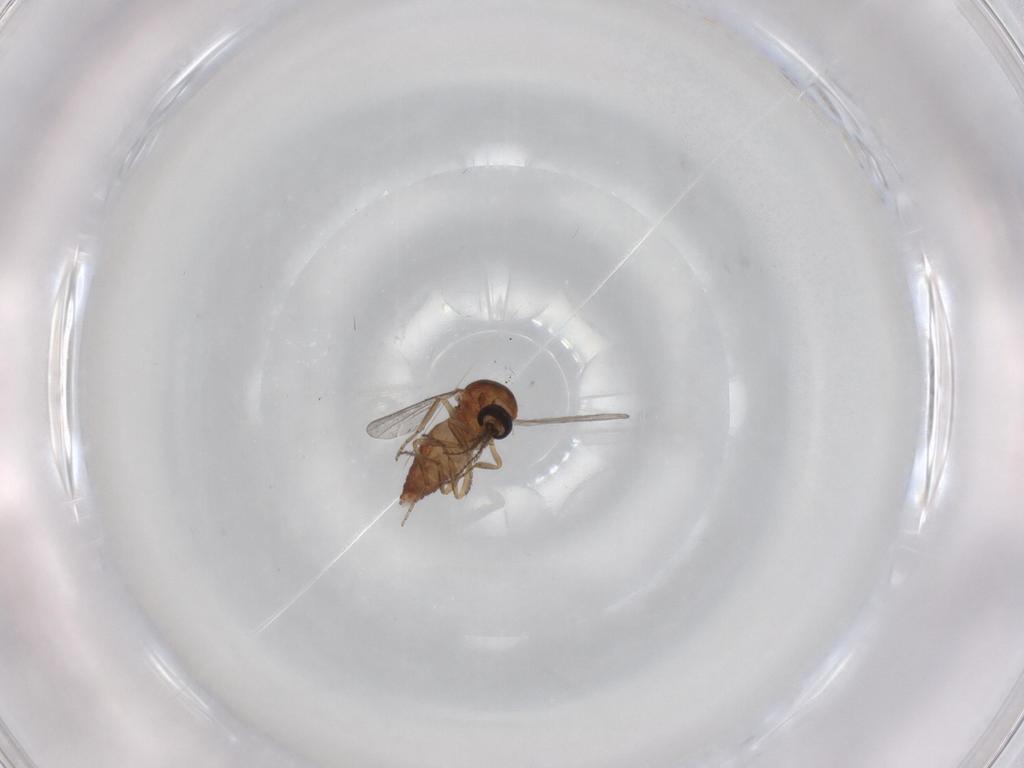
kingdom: Animalia
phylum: Arthropoda
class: Insecta
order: Diptera
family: Ceratopogonidae
